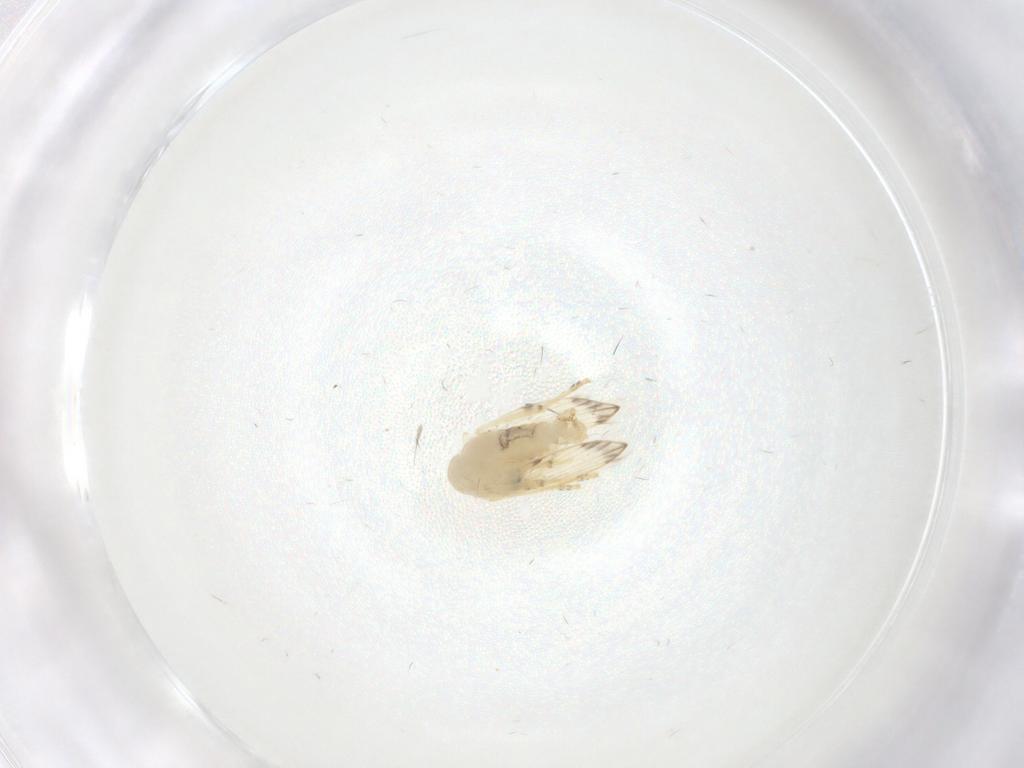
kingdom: Animalia
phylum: Arthropoda
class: Insecta
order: Diptera
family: Psychodidae
